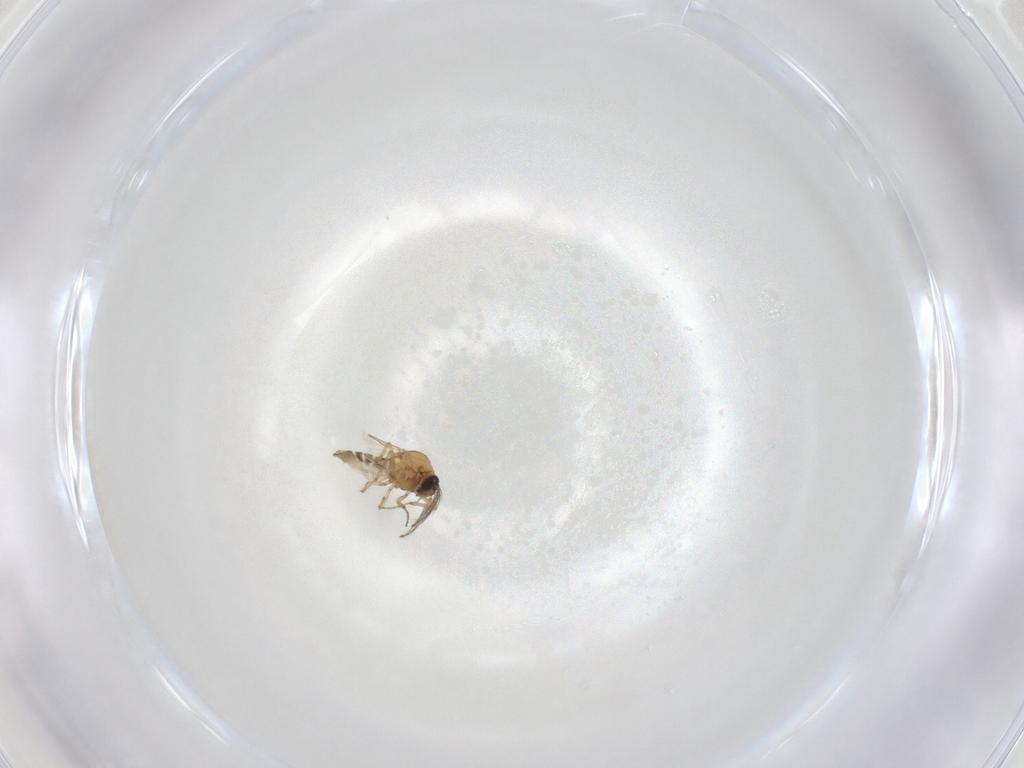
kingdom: Animalia
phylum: Arthropoda
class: Insecta
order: Diptera
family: Ceratopogonidae
